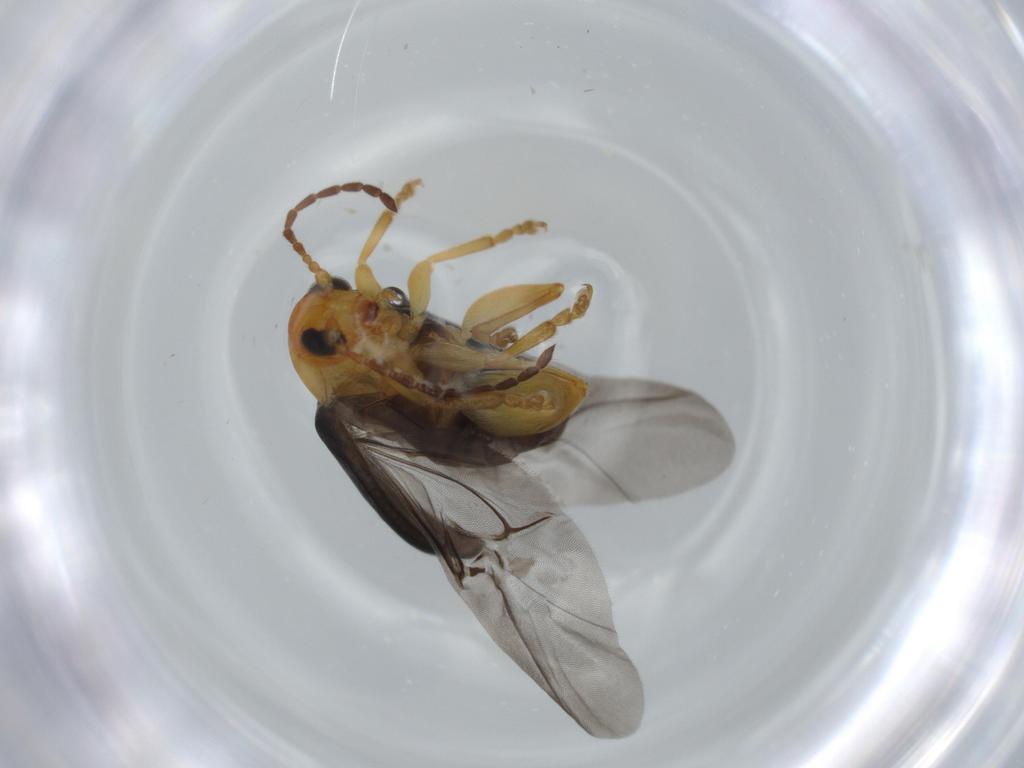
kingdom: Animalia
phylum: Arthropoda
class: Insecta
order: Coleoptera
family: Chrysomelidae
